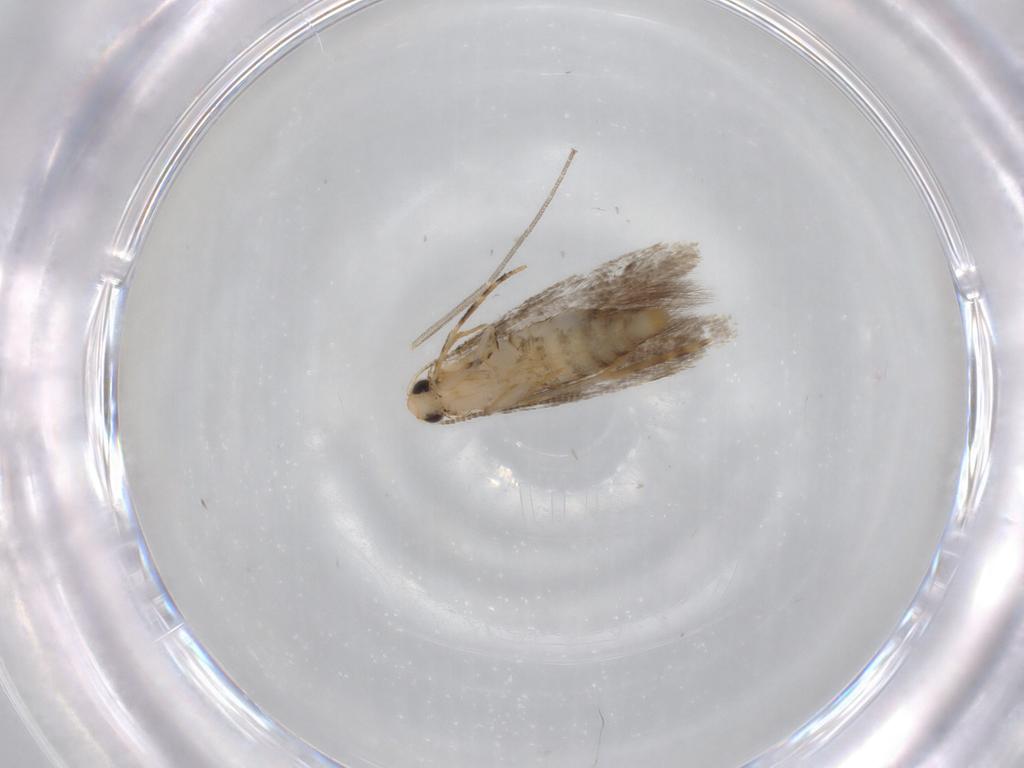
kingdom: Animalia
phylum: Arthropoda
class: Insecta
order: Lepidoptera
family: Tineidae
